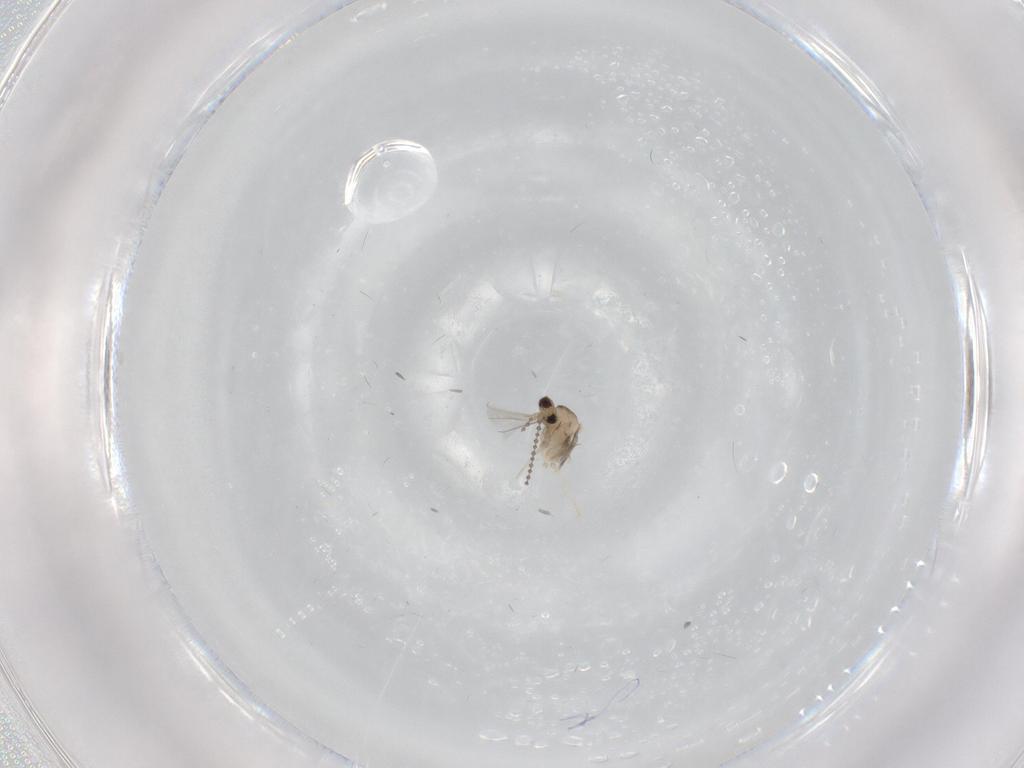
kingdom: Animalia
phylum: Arthropoda
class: Insecta
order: Diptera
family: Cecidomyiidae
